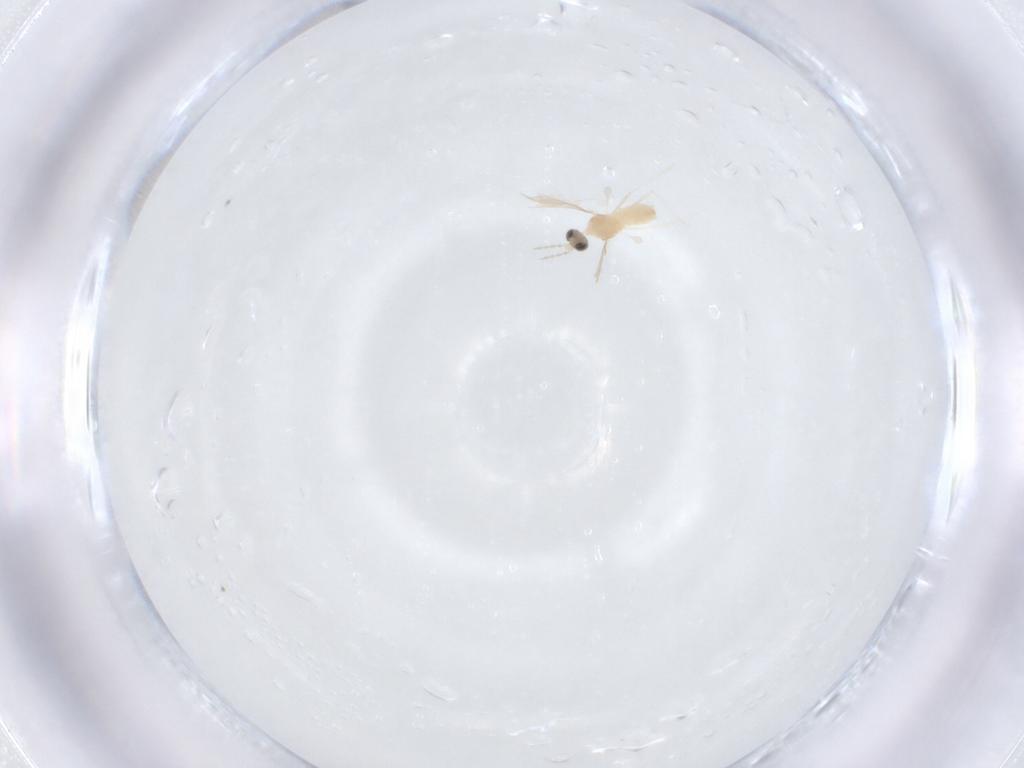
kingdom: Animalia
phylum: Arthropoda
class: Insecta
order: Diptera
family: Tachinidae
